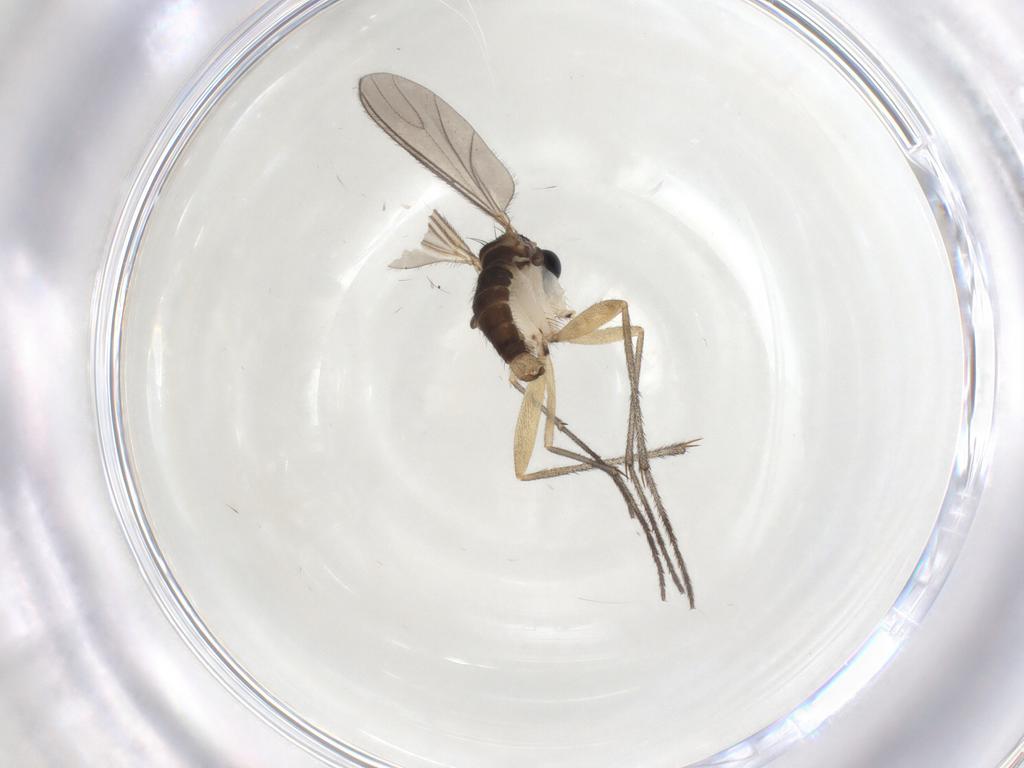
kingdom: Animalia
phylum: Arthropoda
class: Insecta
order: Diptera
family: Sciaridae
